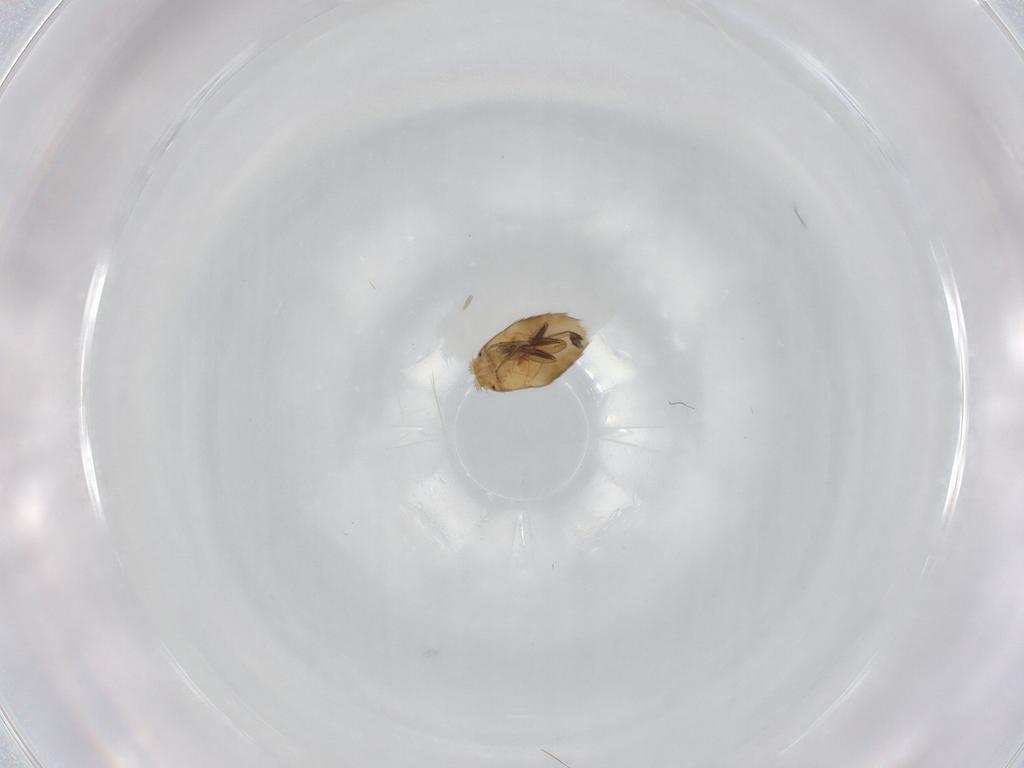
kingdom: Animalia
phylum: Arthropoda
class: Insecta
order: Diptera
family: Phoridae
